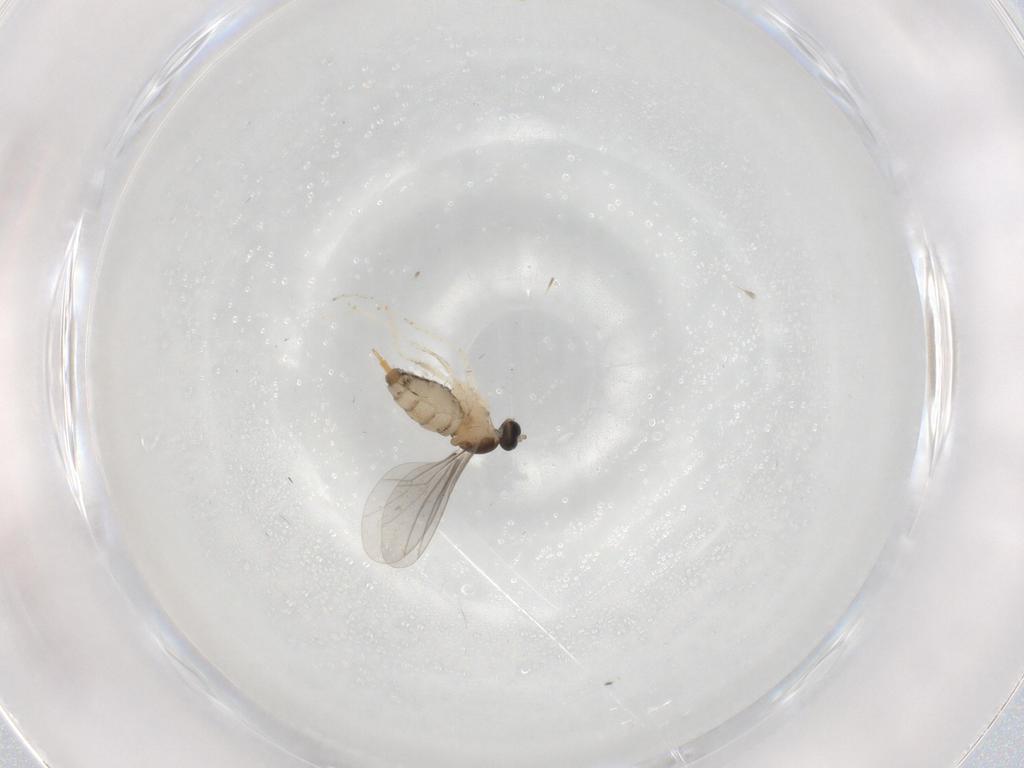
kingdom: Animalia
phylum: Arthropoda
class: Insecta
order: Diptera
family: Cecidomyiidae
